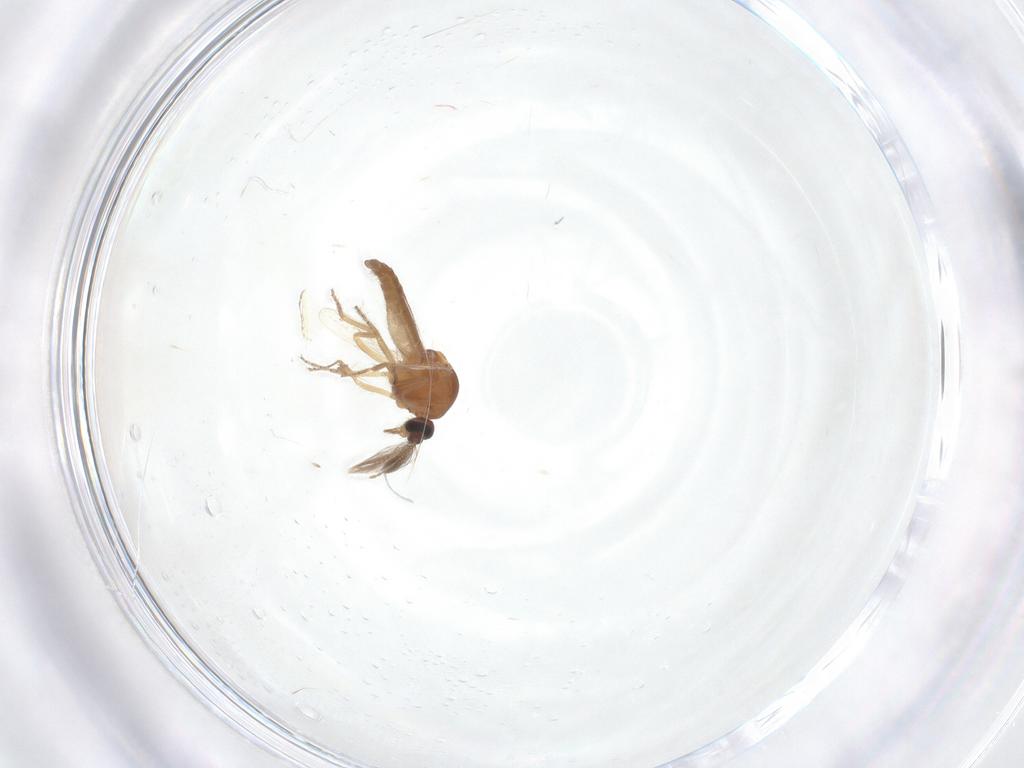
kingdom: Animalia
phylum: Arthropoda
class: Insecta
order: Diptera
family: Ceratopogonidae
